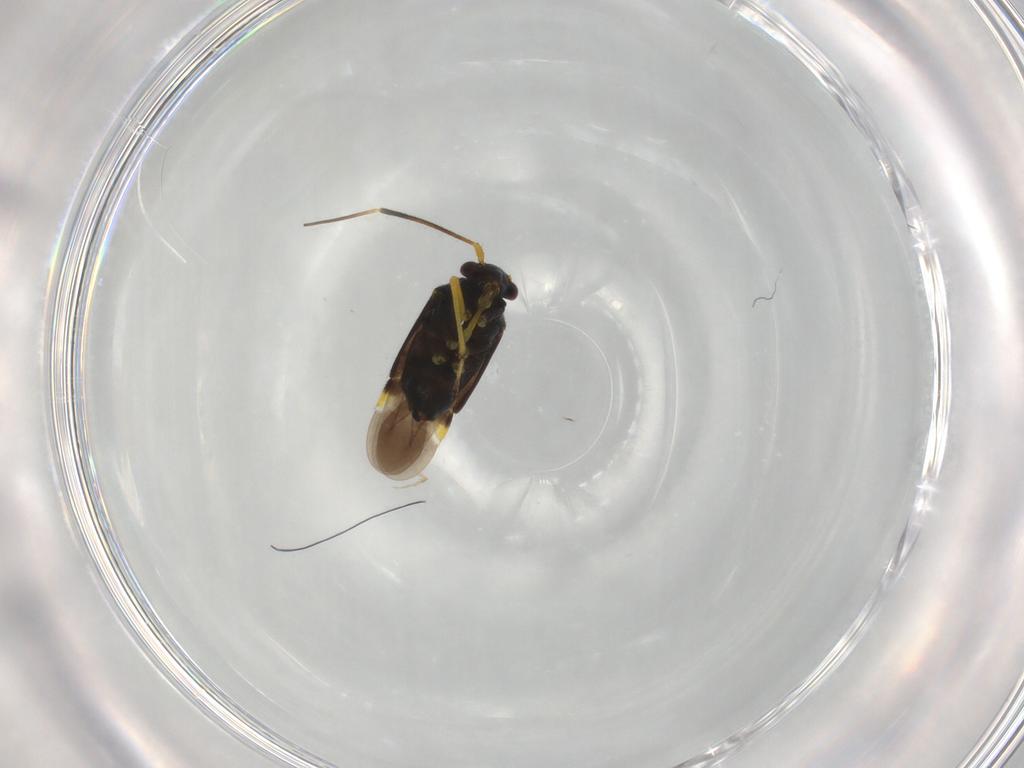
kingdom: Animalia
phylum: Arthropoda
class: Insecta
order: Hemiptera
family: Miridae
